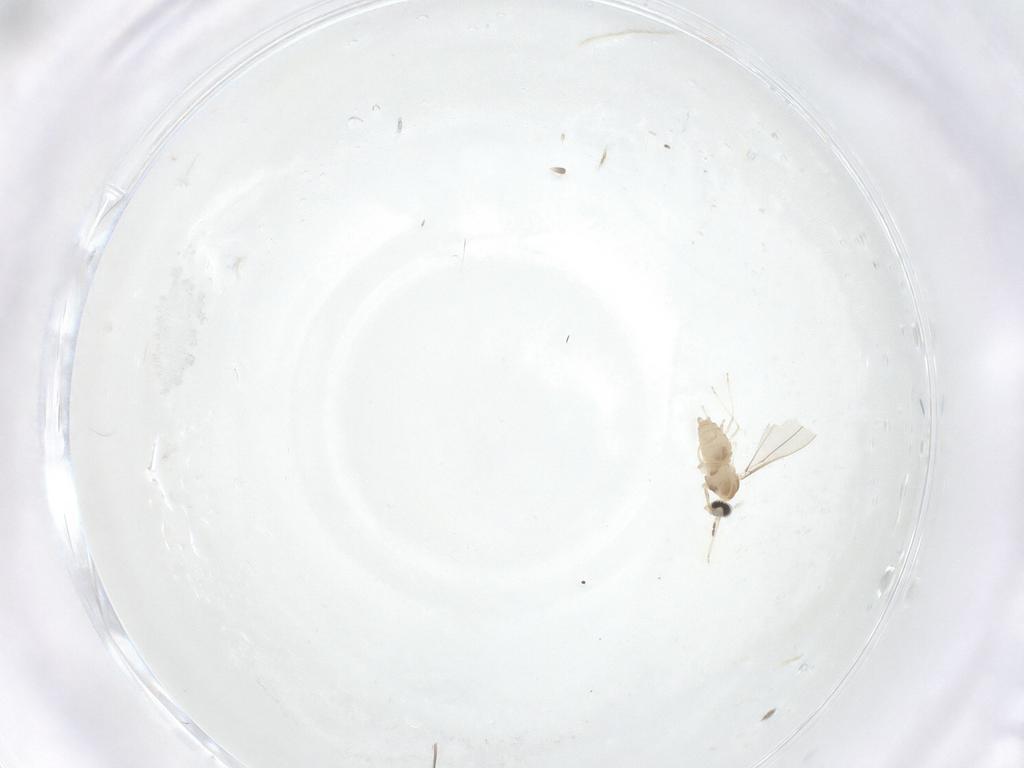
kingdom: Animalia
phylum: Arthropoda
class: Insecta
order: Diptera
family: Cecidomyiidae
